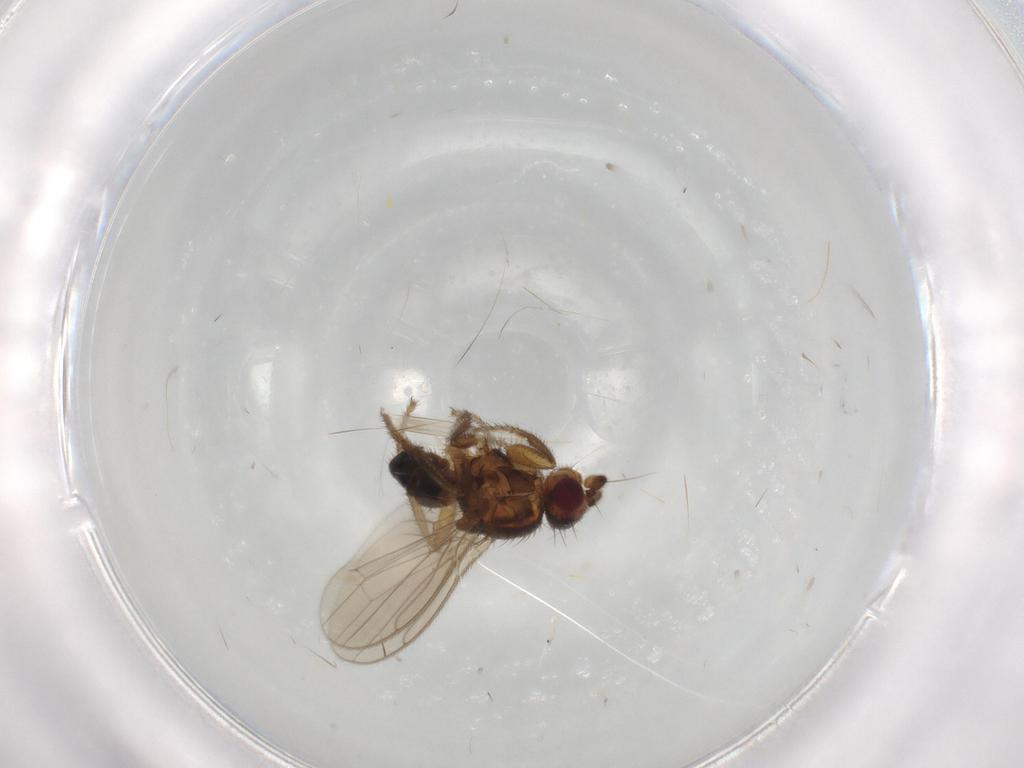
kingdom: Animalia
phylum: Arthropoda
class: Insecta
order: Diptera
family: Sphaeroceridae
